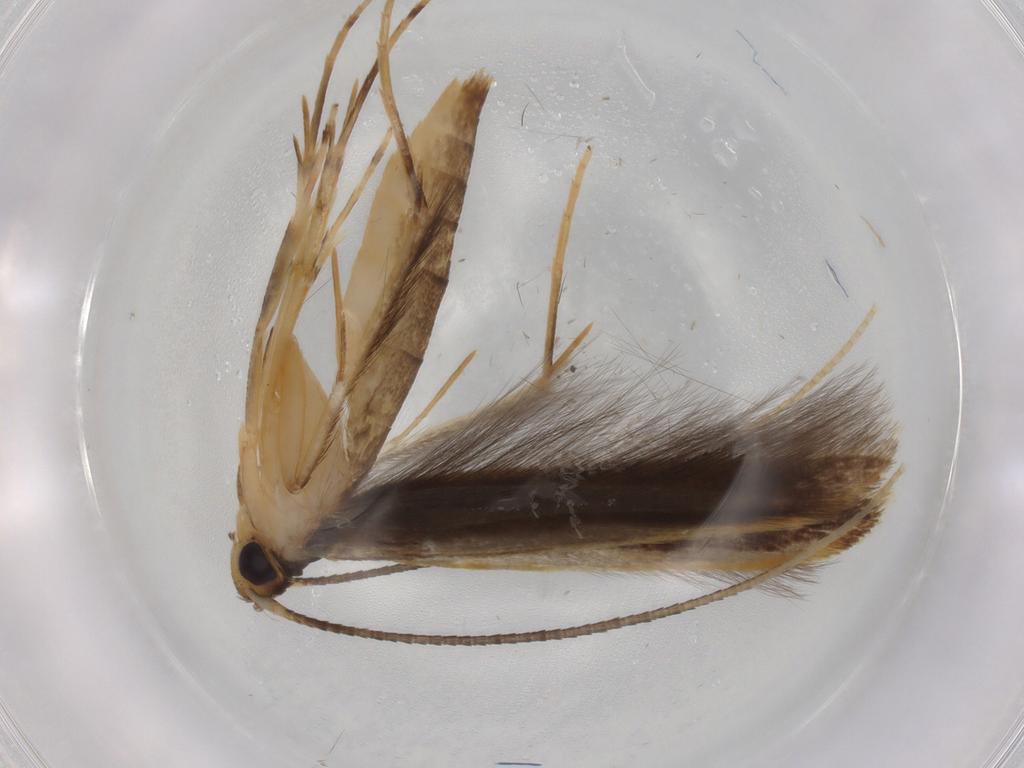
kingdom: Animalia
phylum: Arthropoda
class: Insecta
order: Lepidoptera
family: Pterolonchidae
